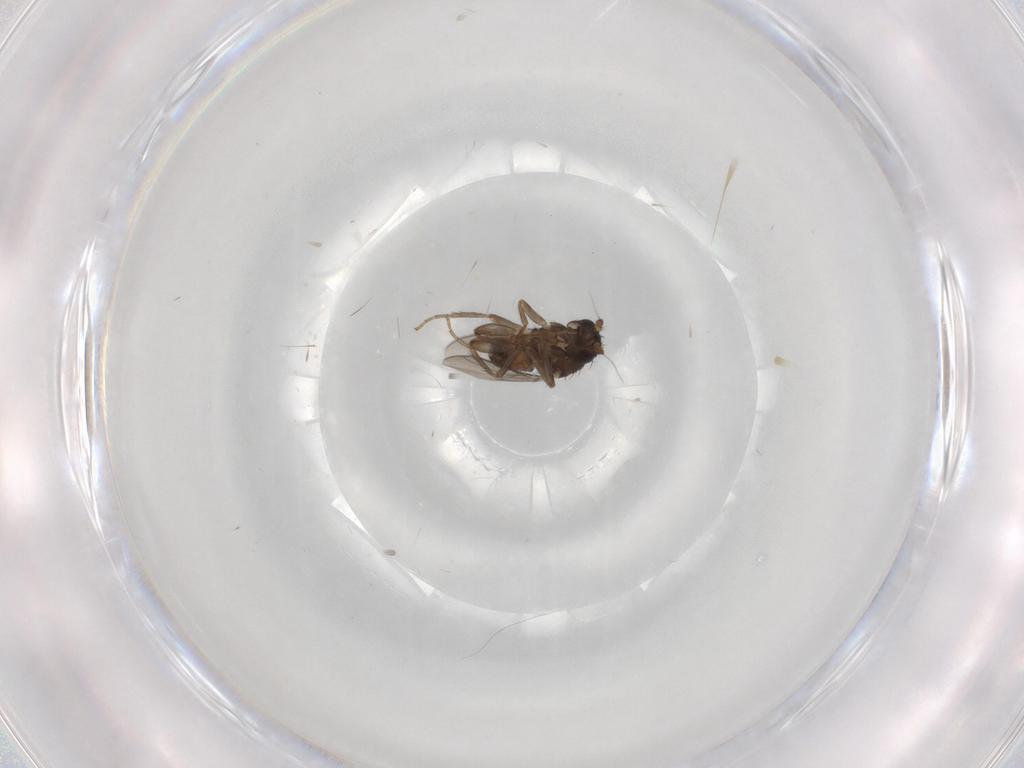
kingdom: Animalia
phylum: Arthropoda
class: Insecta
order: Diptera
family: Sphaeroceridae
